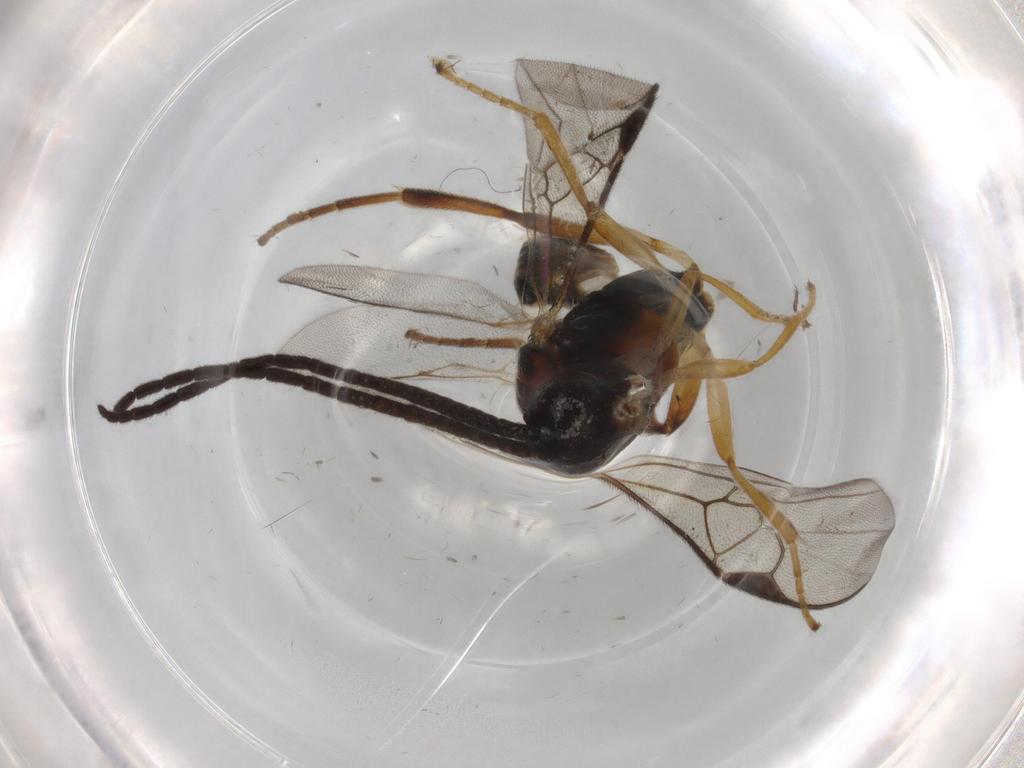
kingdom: Animalia
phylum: Arthropoda
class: Insecta
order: Hymenoptera
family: Braconidae
